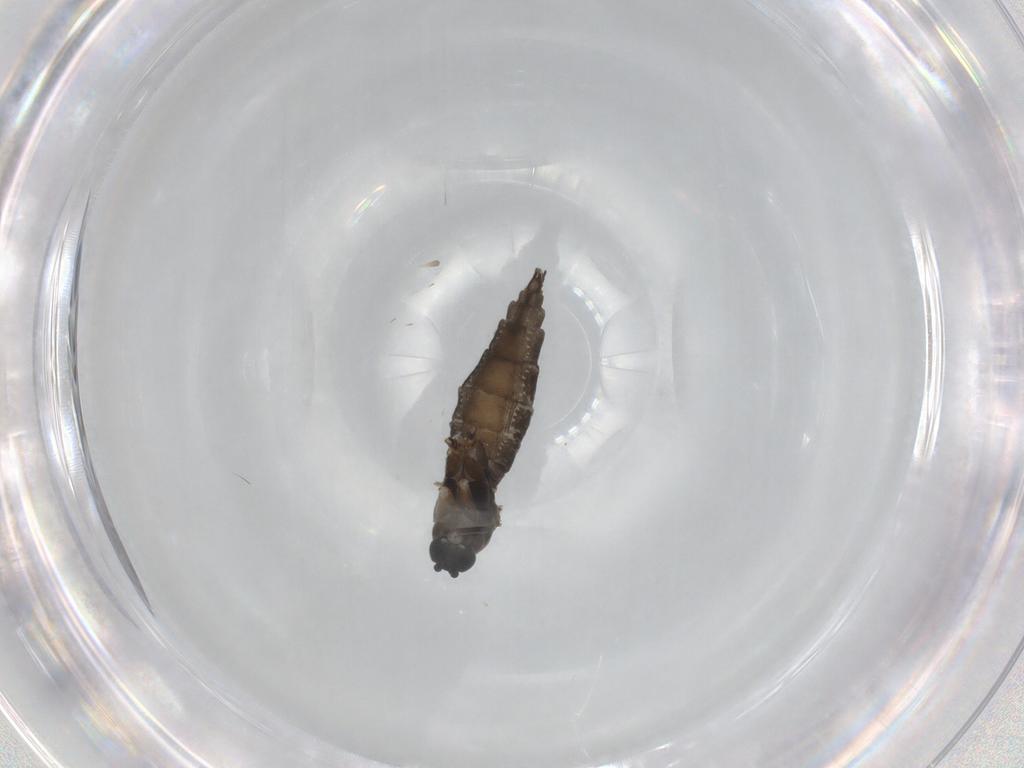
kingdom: Animalia
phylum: Arthropoda
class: Insecta
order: Diptera
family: Sciaridae
